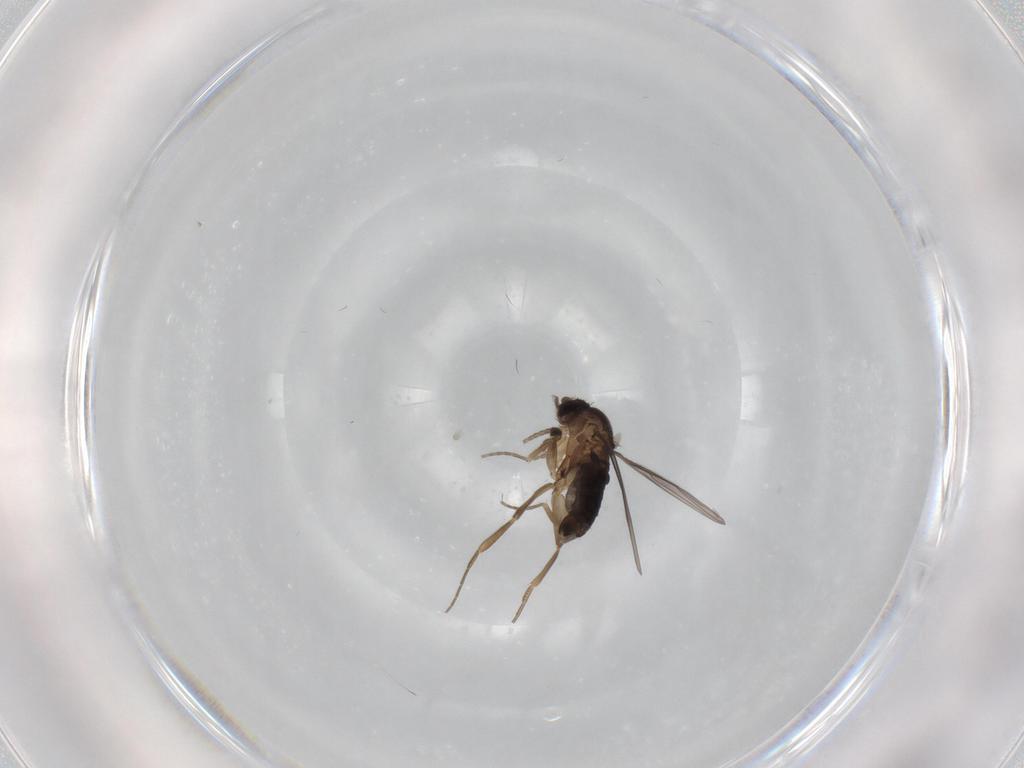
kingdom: Animalia
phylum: Arthropoda
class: Insecta
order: Diptera
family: Phoridae
